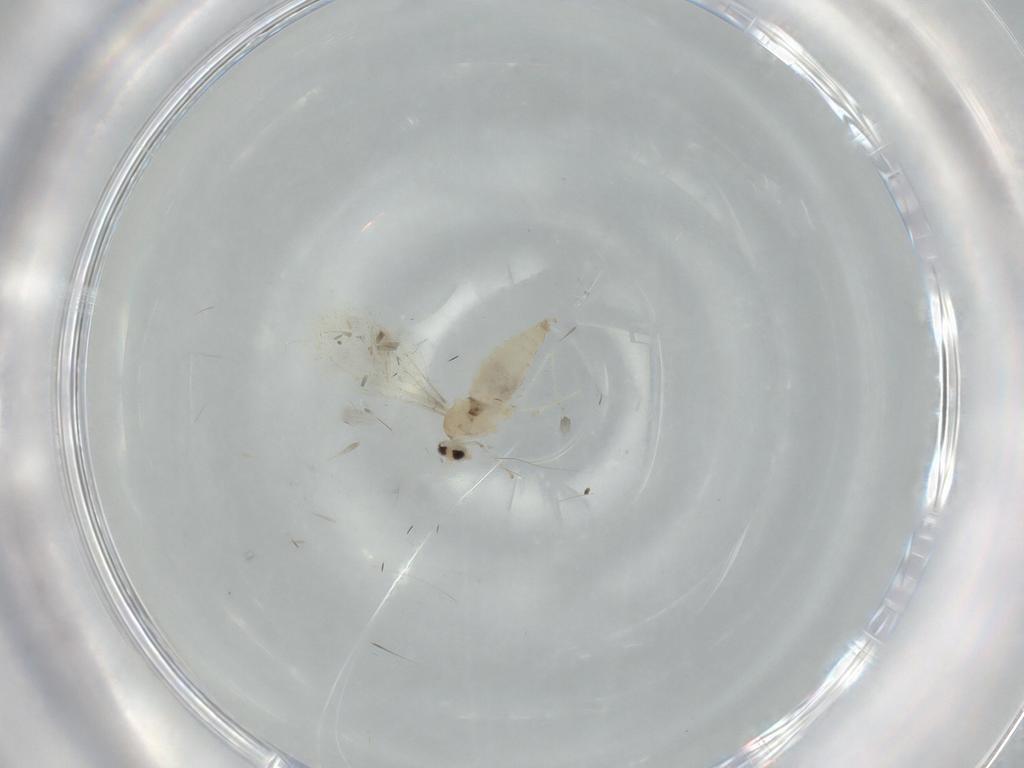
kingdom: Animalia
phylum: Arthropoda
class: Insecta
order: Diptera
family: Cecidomyiidae
